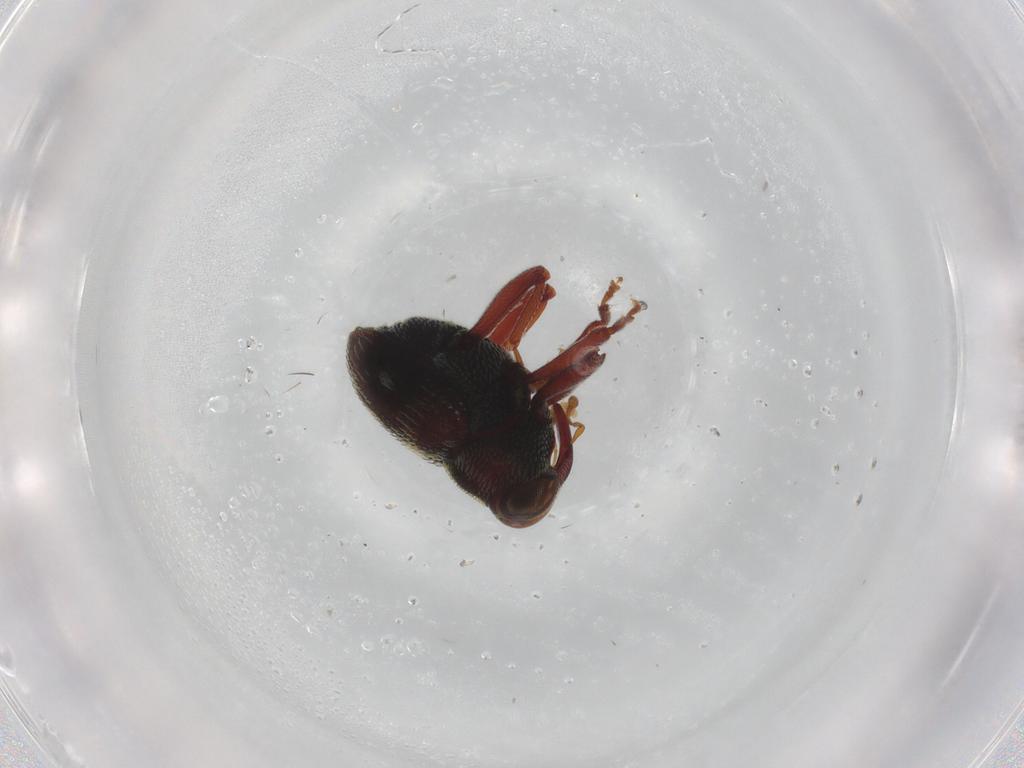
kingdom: Animalia
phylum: Arthropoda
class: Insecta
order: Coleoptera
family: Curculionidae
